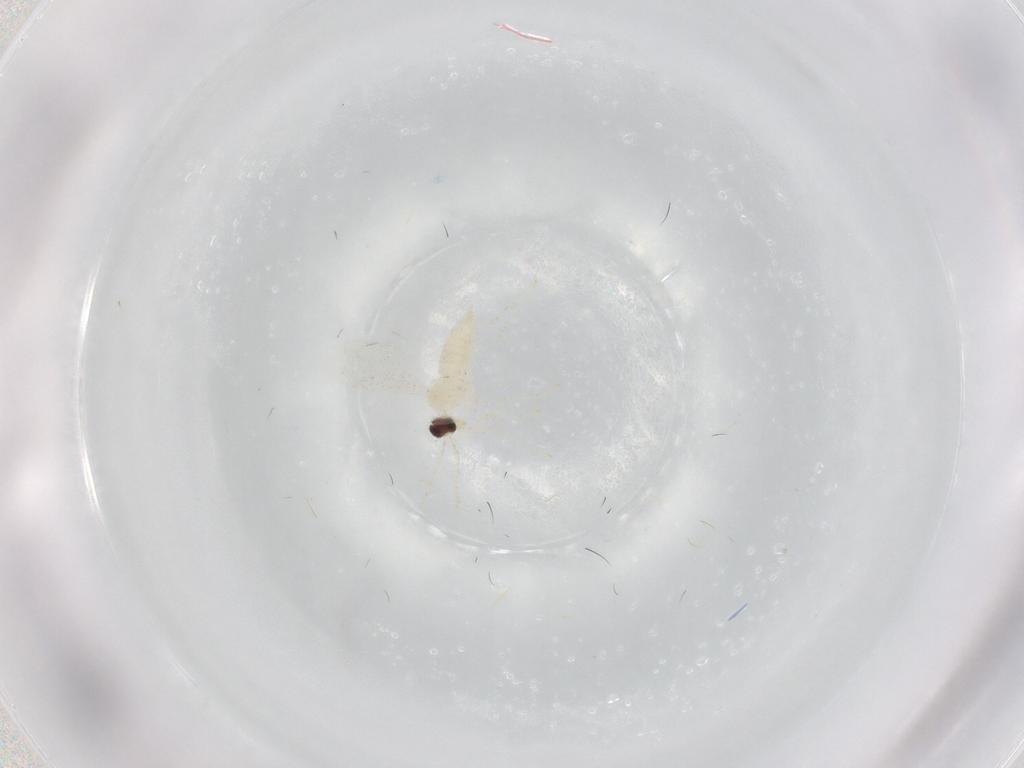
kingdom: Animalia
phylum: Arthropoda
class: Insecta
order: Diptera
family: Cecidomyiidae
